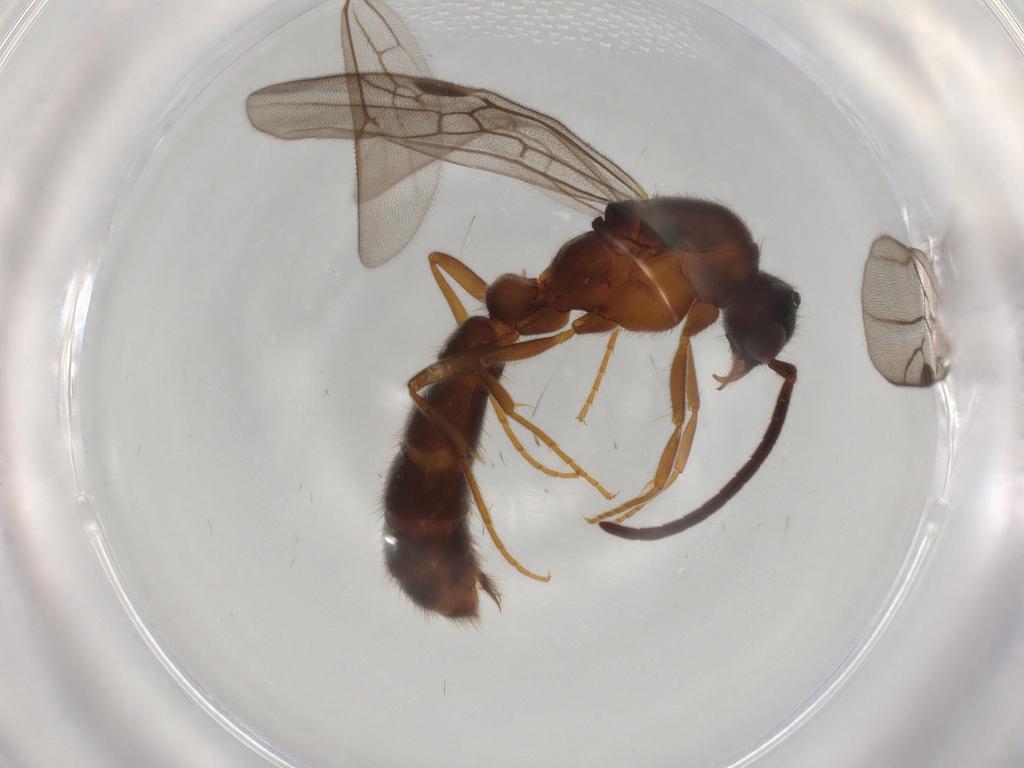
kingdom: Animalia
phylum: Arthropoda
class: Insecta
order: Hymenoptera
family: Formicidae
